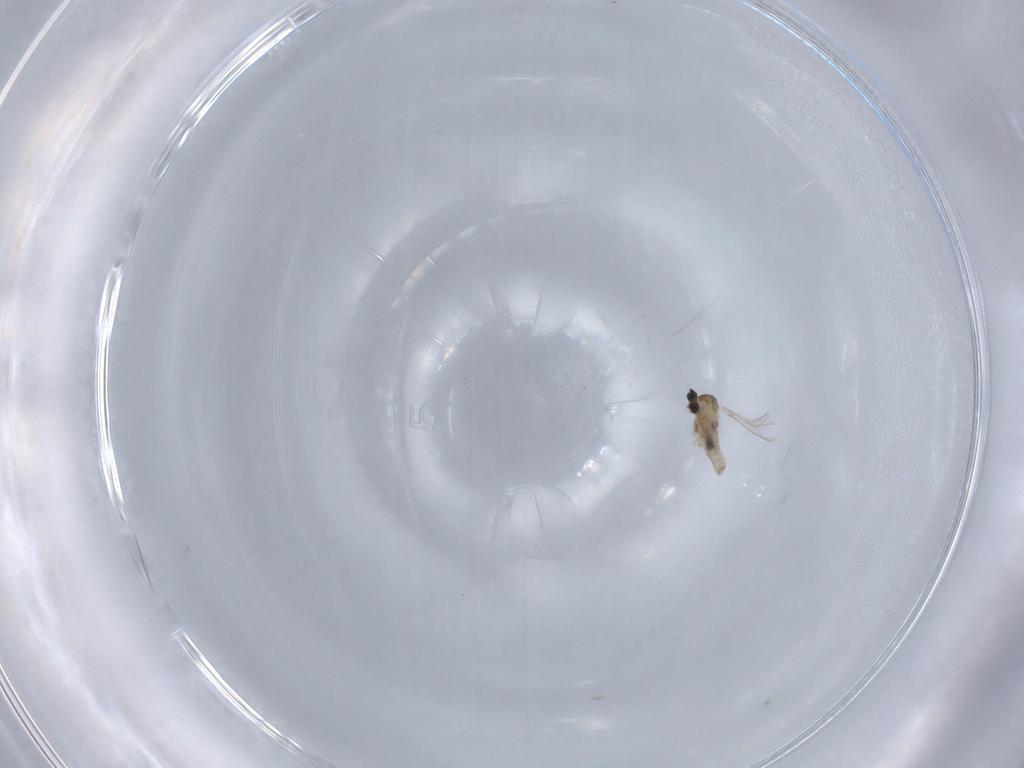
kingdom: Animalia
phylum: Arthropoda
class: Insecta
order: Diptera
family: Cecidomyiidae
